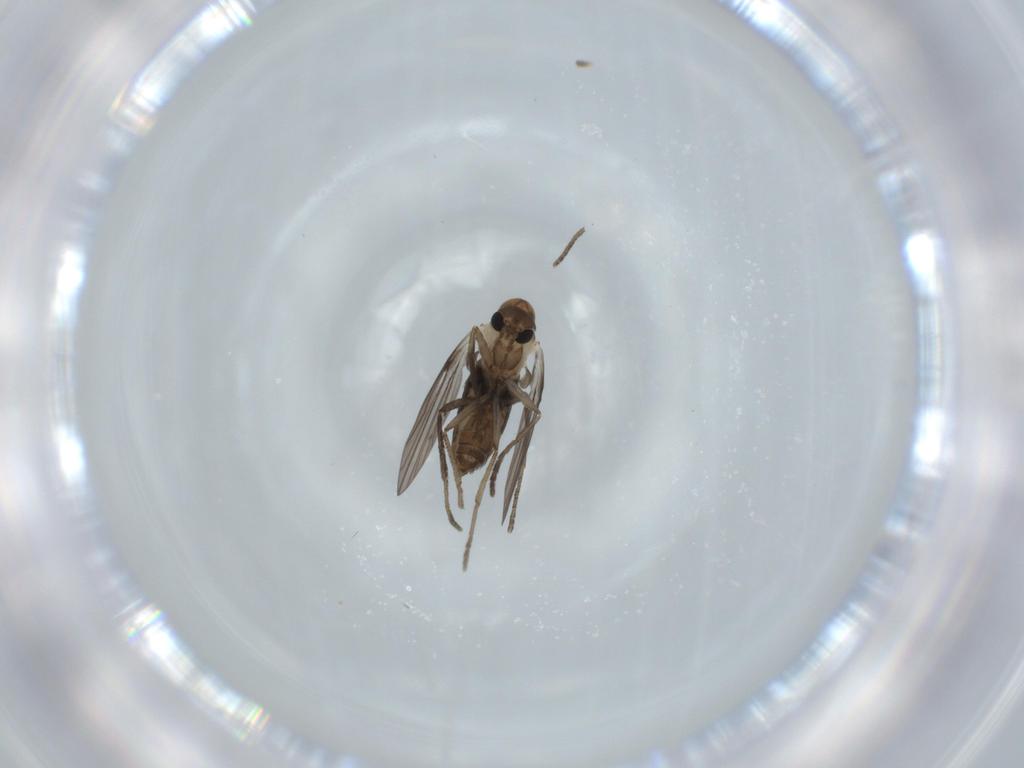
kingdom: Animalia
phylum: Arthropoda
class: Insecta
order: Diptera
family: Psychodidae
